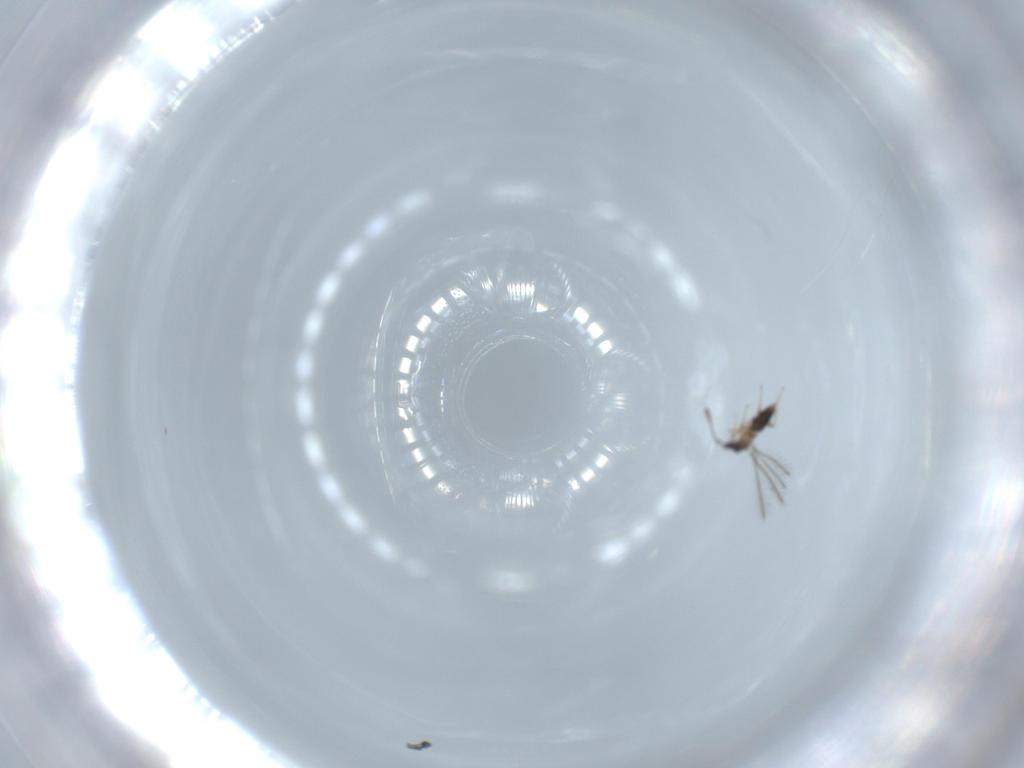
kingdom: Animalia
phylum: Arthropoda
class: Insecta
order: Hymenoptera
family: Mymaridae
